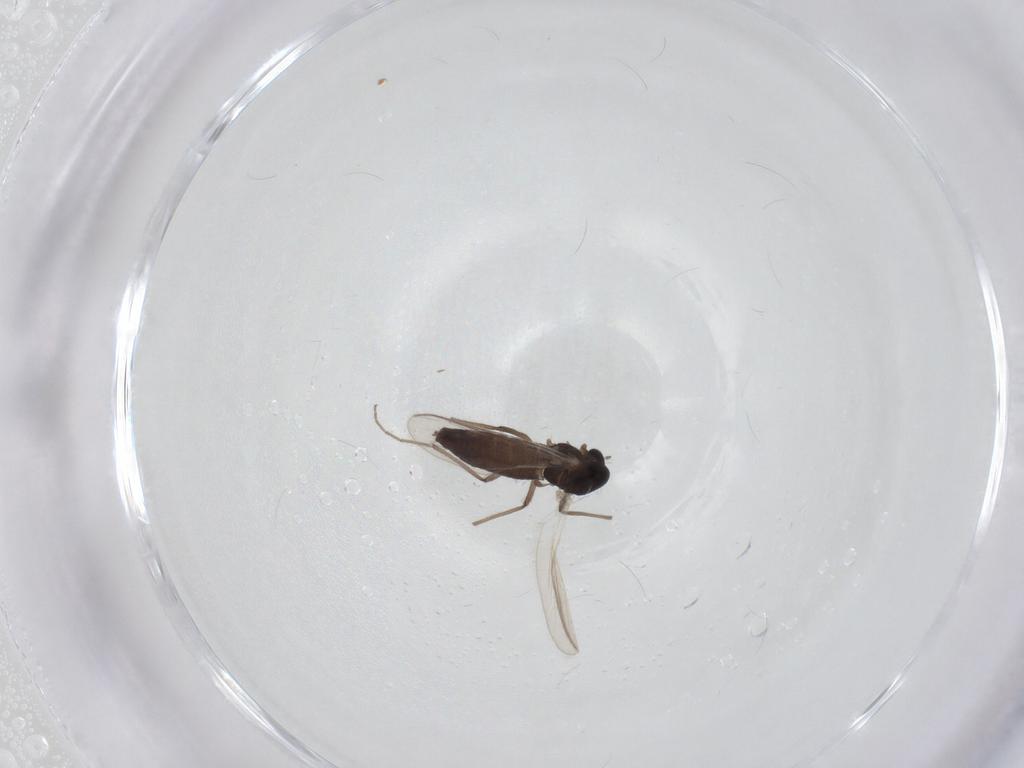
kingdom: Animalia
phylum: Arthropoda
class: Insecta
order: Diptera
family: Chironomidae
